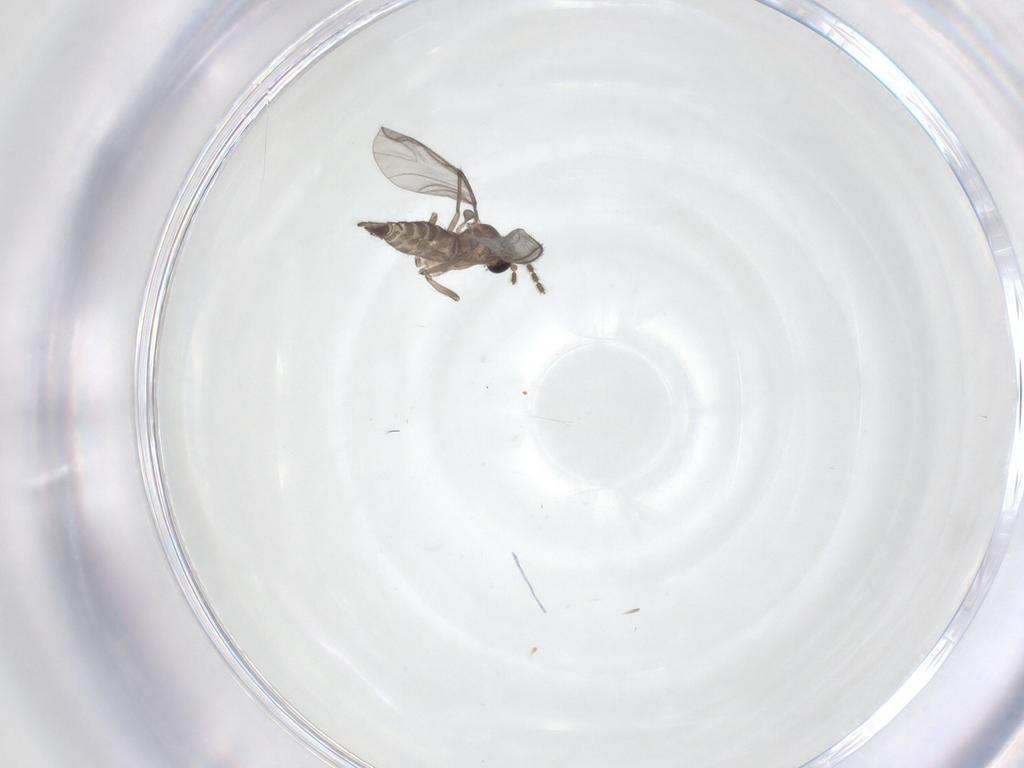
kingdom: Animalia
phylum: Arthropoda
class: Insecta
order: Diptera
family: Sciaridae
